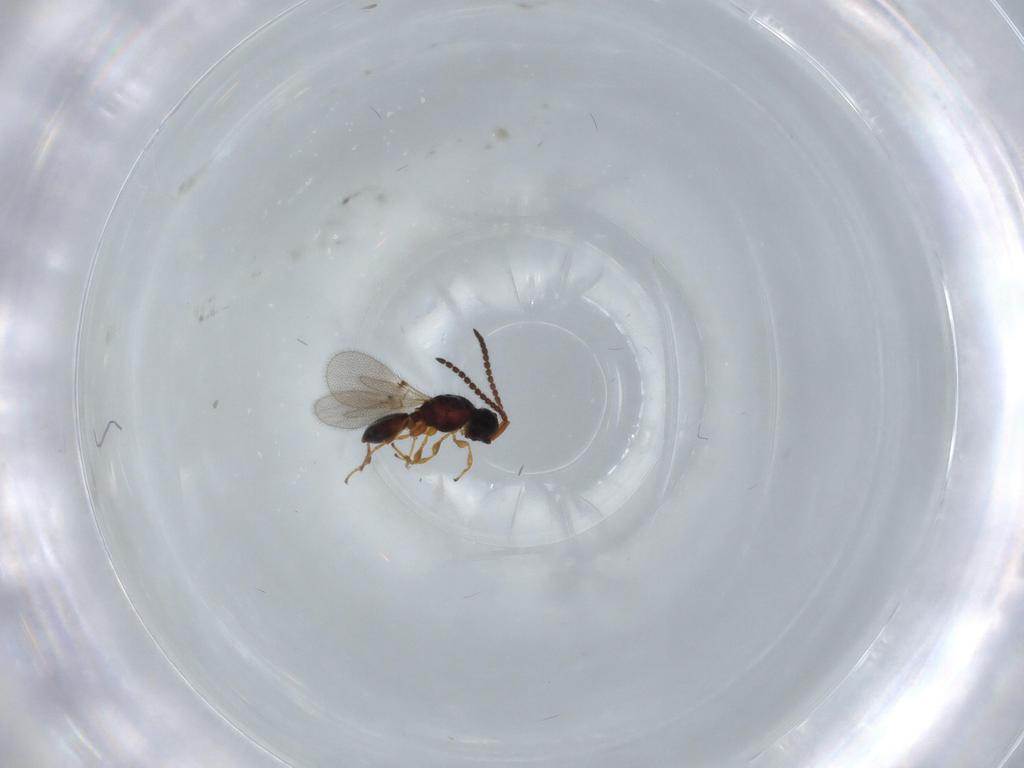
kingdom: Animalia
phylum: Arthropoda
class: Insecta
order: Hymenoptera
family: Diapriidae
